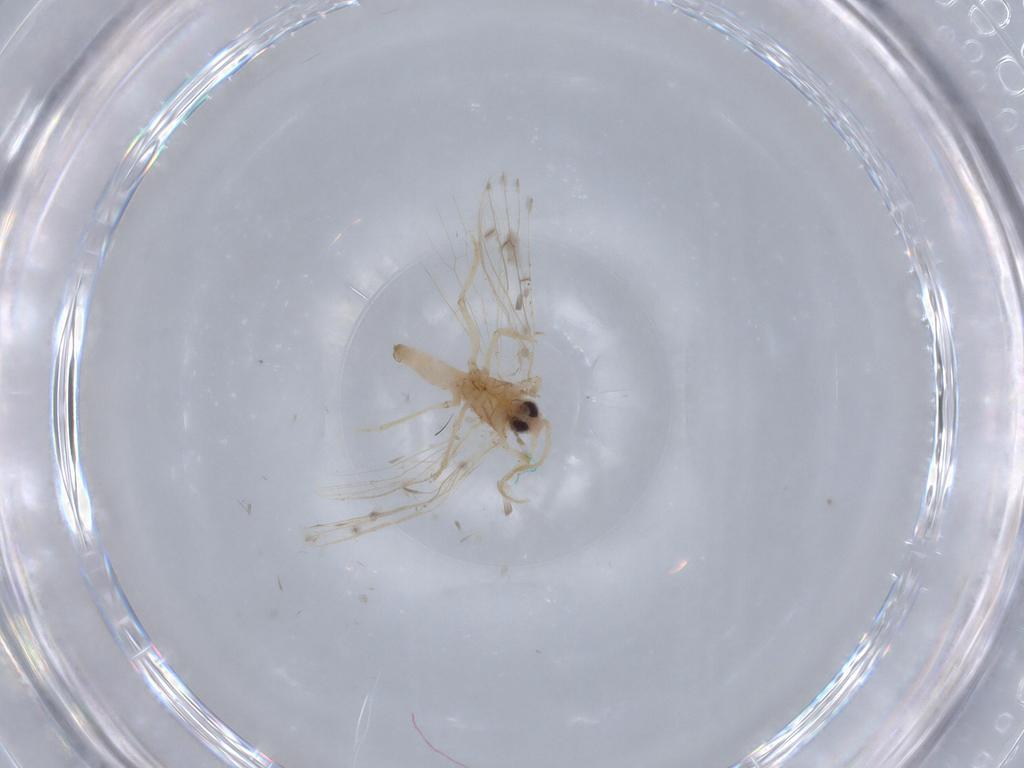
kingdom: Animalia
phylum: Arthropoda
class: Insecta
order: Neuroptera
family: Coniopterygidae
